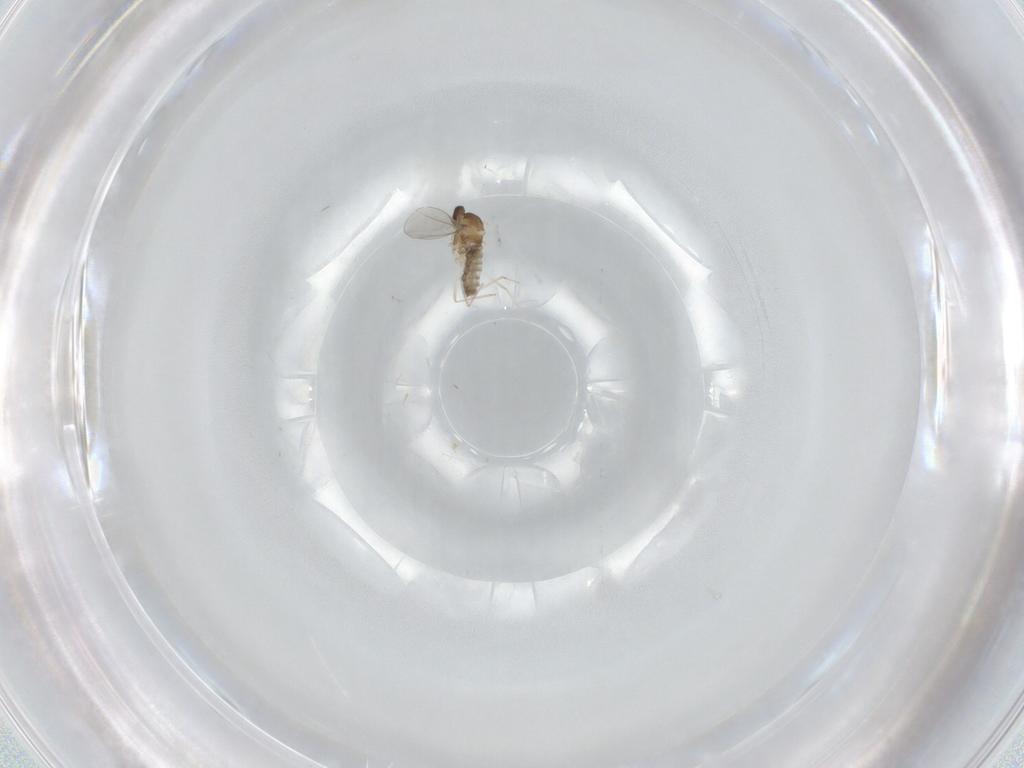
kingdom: Animalia
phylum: Arthropoda
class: Insecta
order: Diptera
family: Cecidomyiidae
